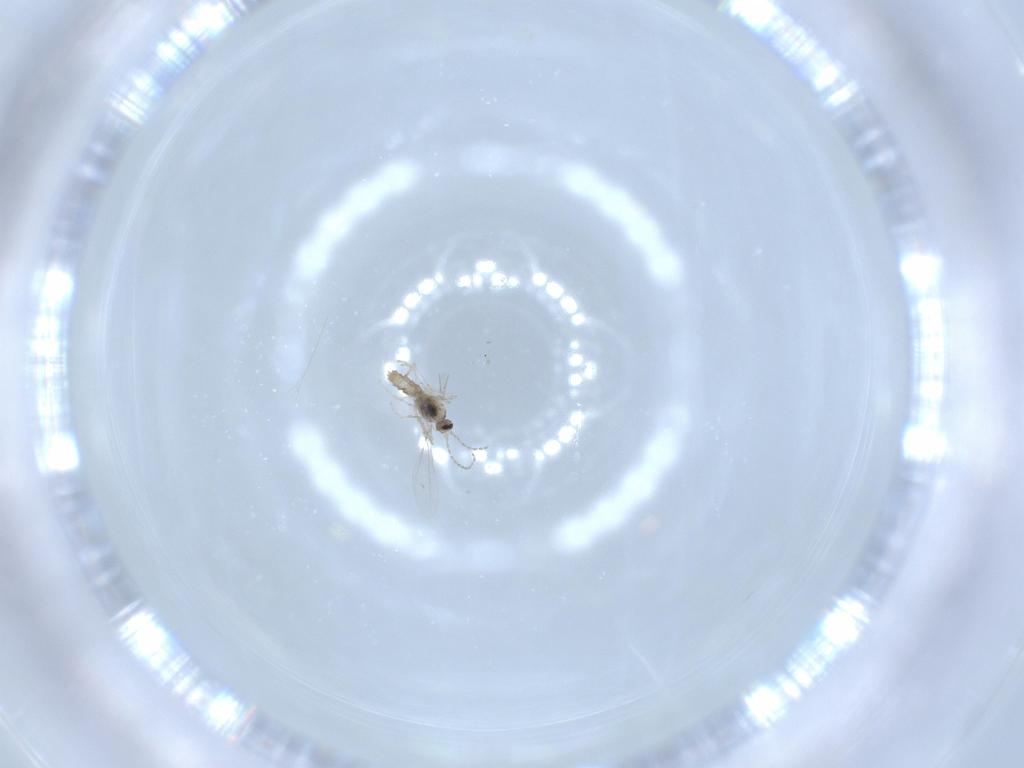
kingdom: Animalia
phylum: Arthropoda
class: Insecta
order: Diptera
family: Cecidomyiidae
